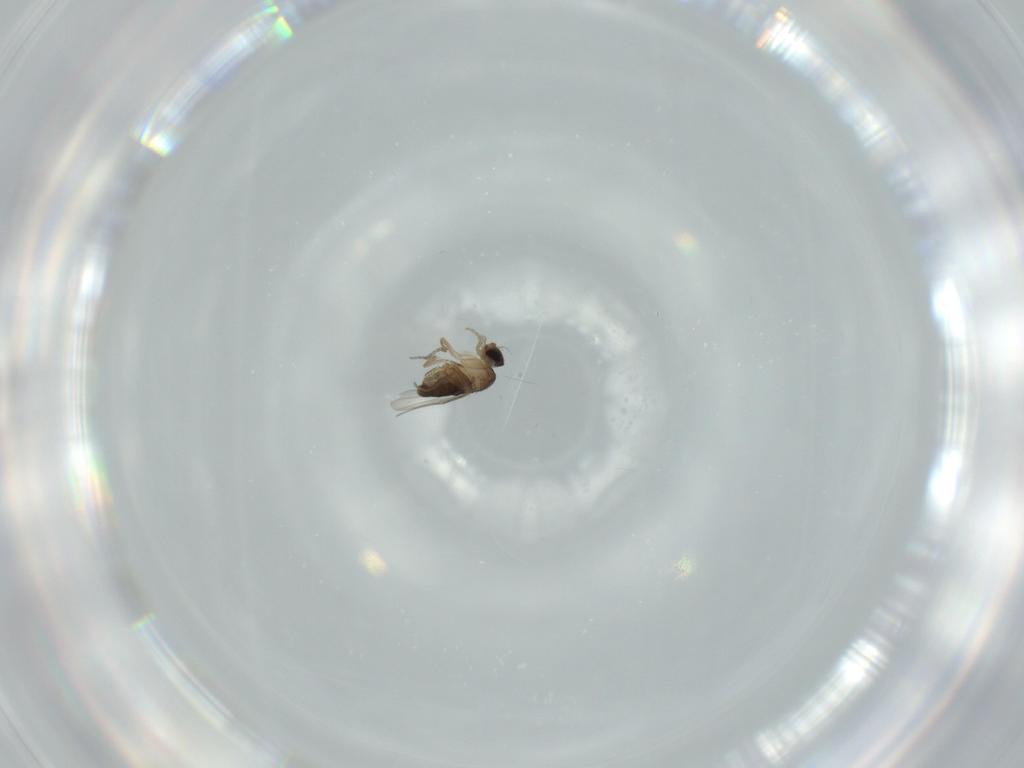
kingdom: Animalia
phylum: Arthropoda
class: Insecta
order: Diptera
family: Phoridae
